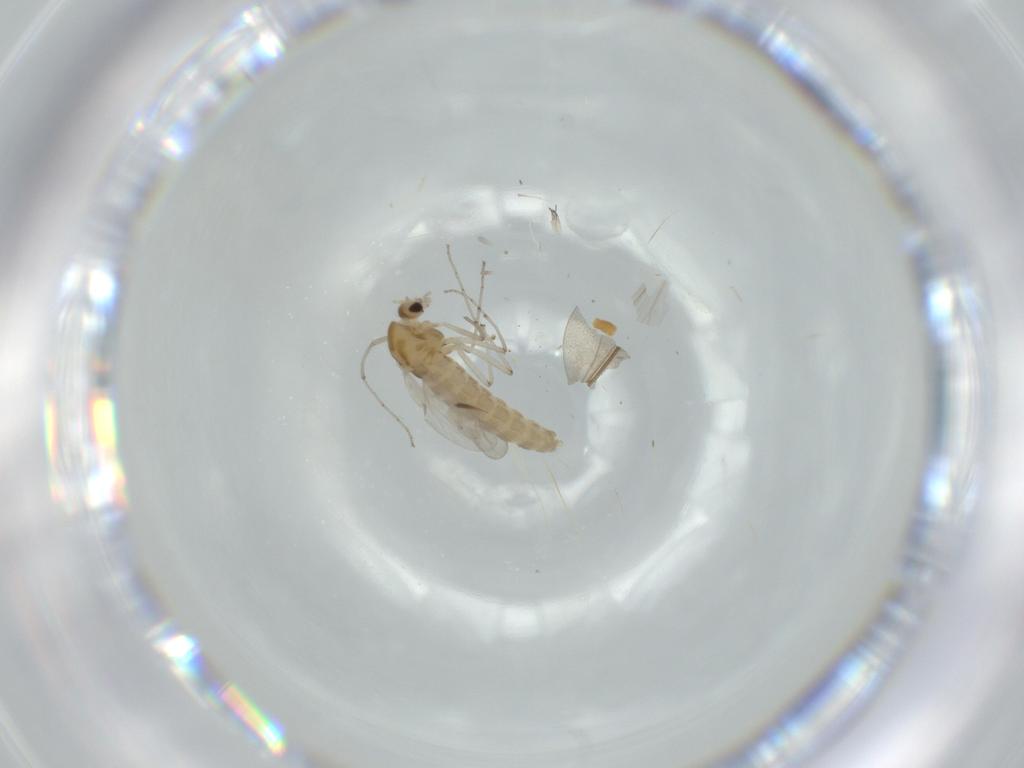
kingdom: Animalia
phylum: Arthropoda
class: Insecta
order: Diptera
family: Chironomidae
